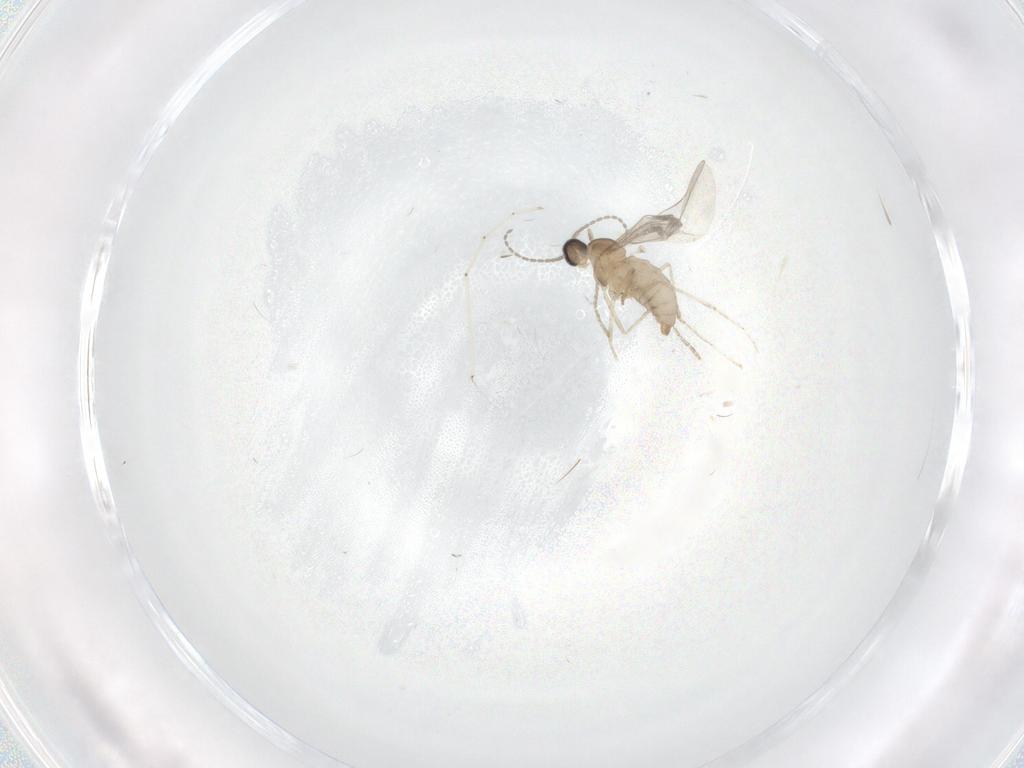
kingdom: Animalia
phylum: Arthropoda
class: Insecta
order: Diptera
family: Cecidomyiidae
